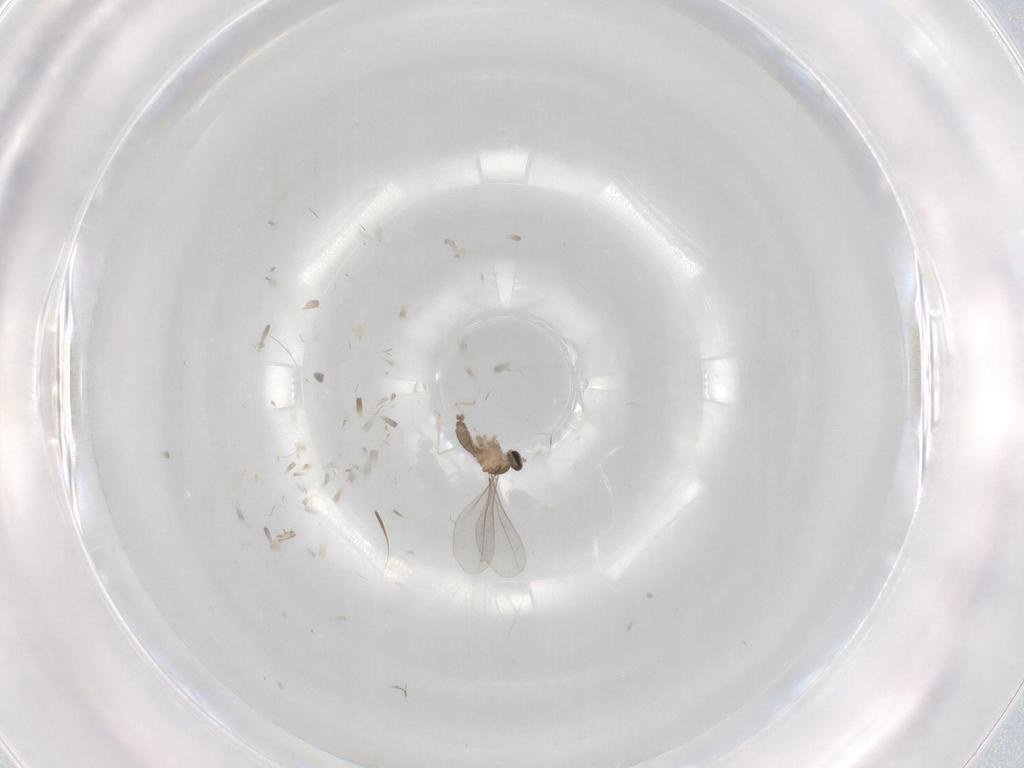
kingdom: Animalia
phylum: Arthropoda
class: Insecta
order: Diptera
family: Cecidomyiidae
